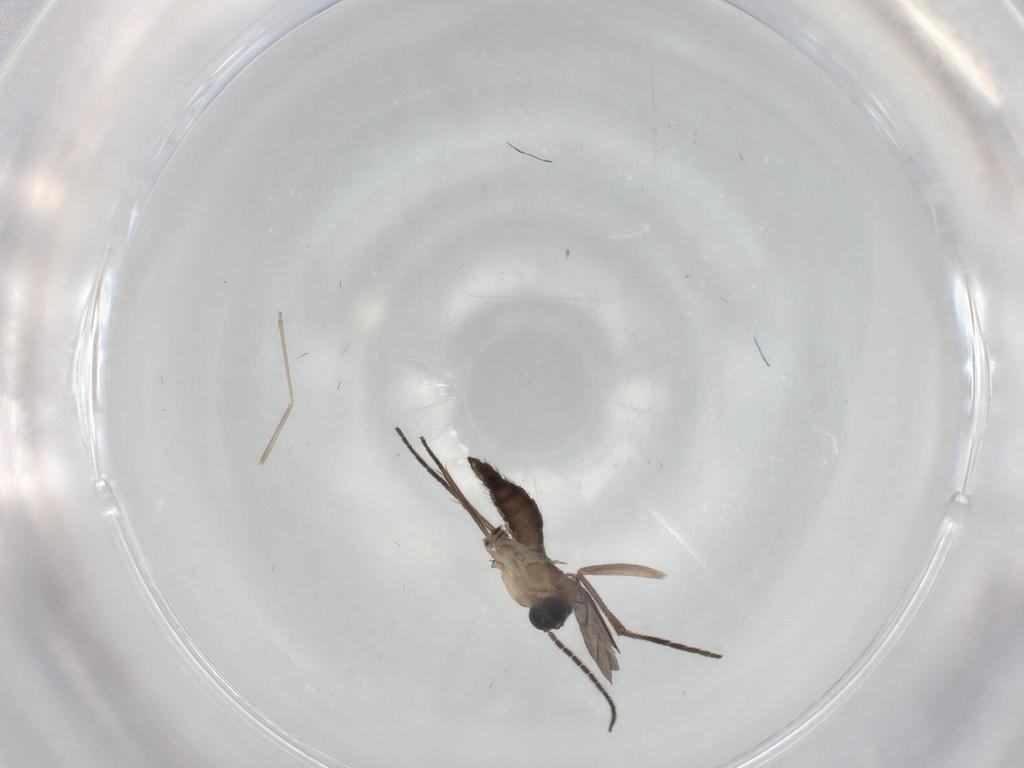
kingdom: Animalia
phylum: Arthropoda
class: Insecta
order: Diptera
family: Sciaridae
